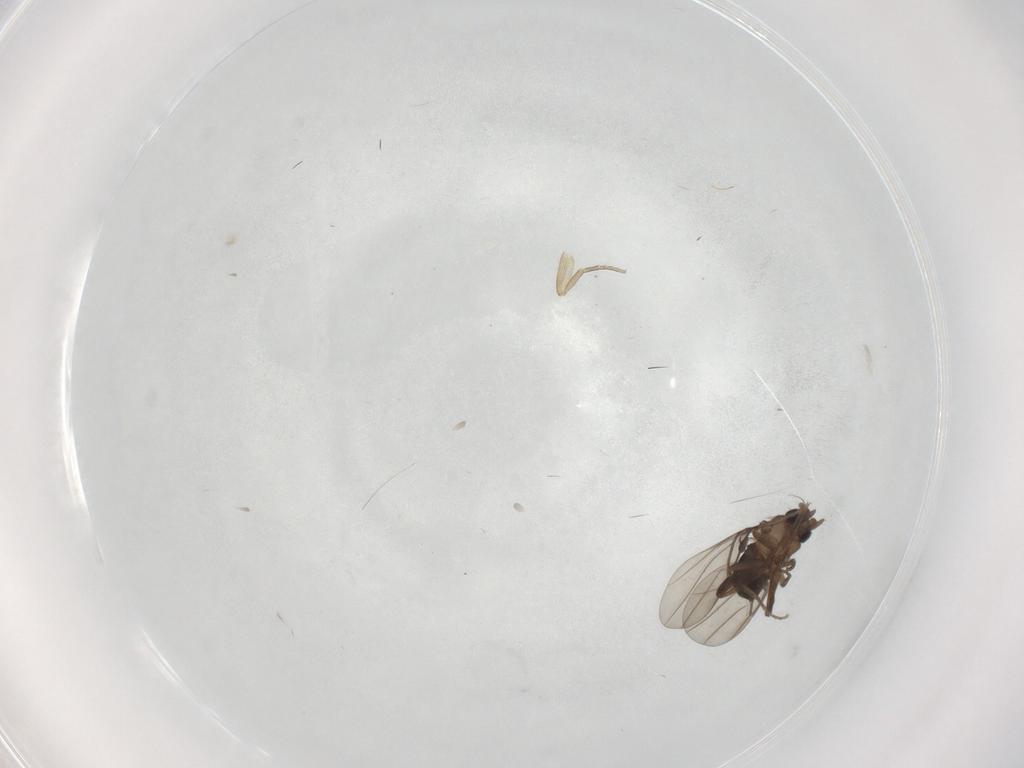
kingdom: Animalia
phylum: Arthropoda
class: Insecta
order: Diptera
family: Phoridae
